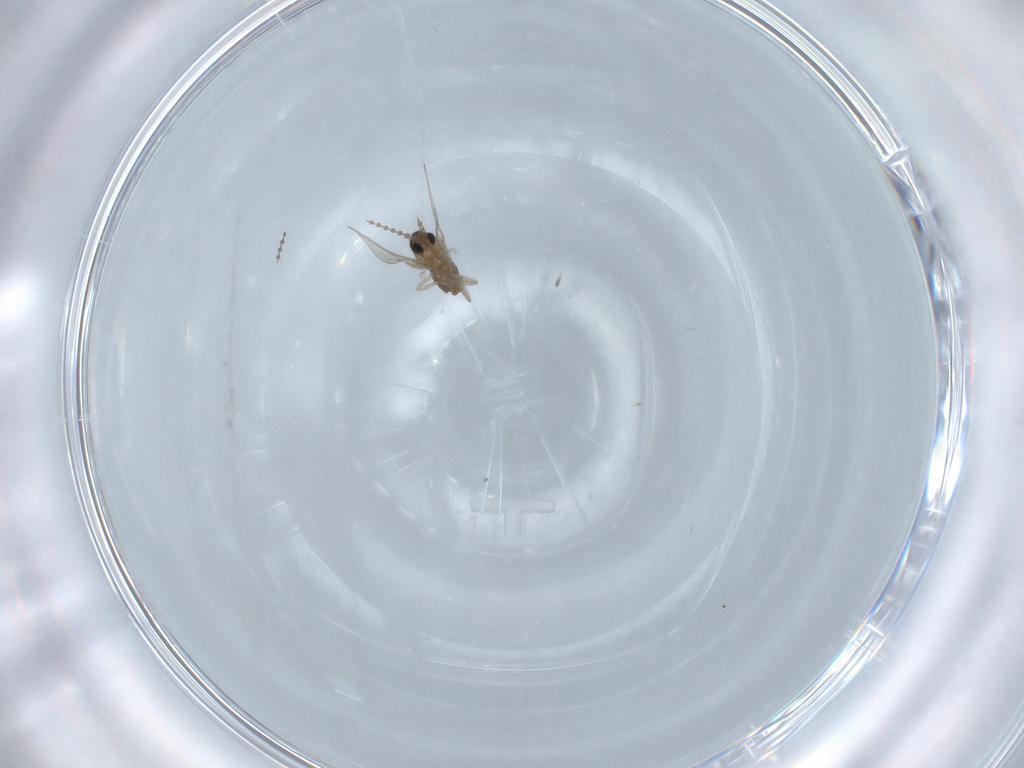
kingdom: Animalia
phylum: Arthropoda
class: Insecta
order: Diptera
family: Cecidomyiidae
